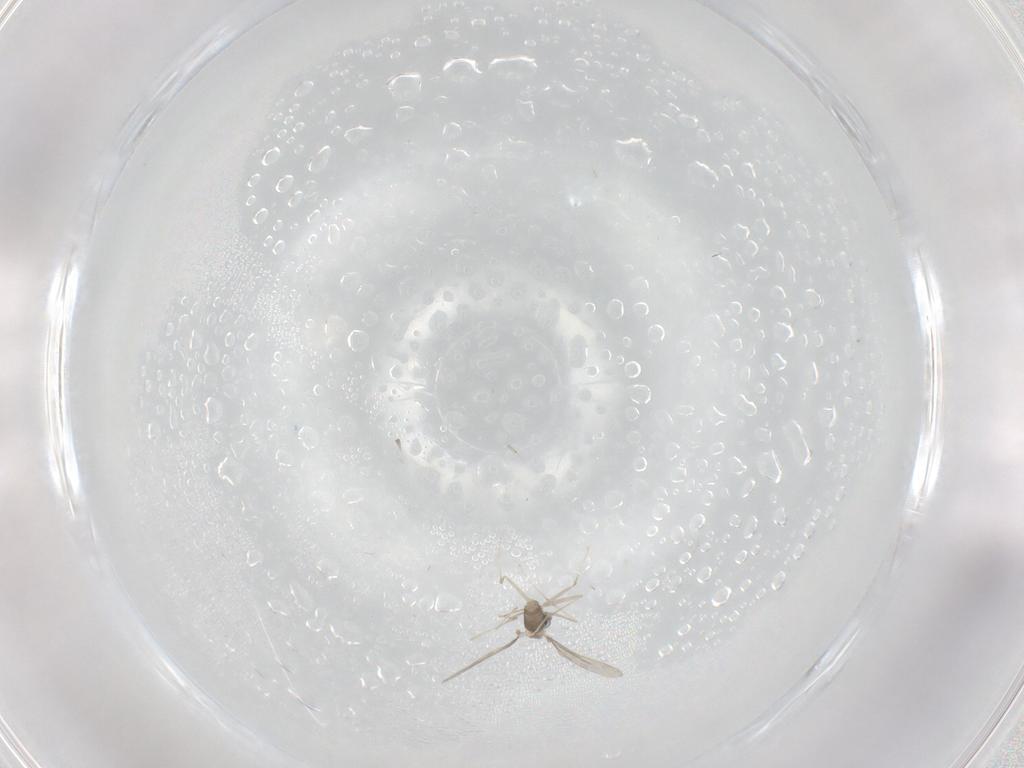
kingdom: Animalia
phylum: Arthropoda
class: Insecta
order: Diptera
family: Cecidomyiidae
